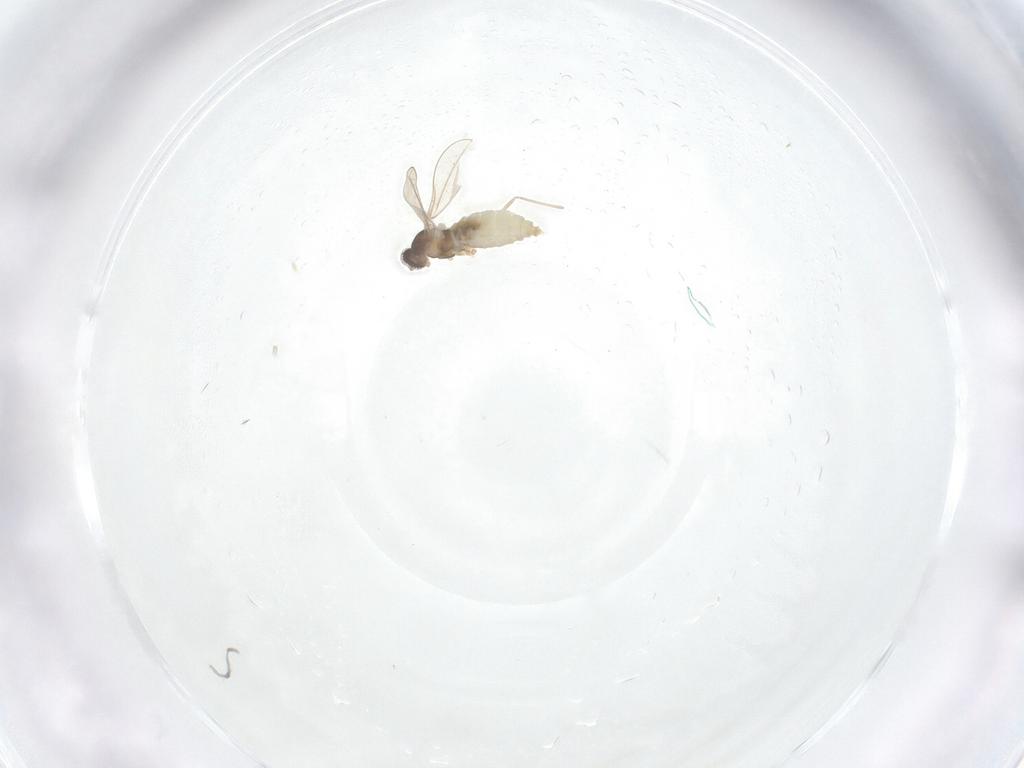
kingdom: Animalia
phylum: Arthropoda
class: Insecta
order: Diptera
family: Cecidomyiidae
